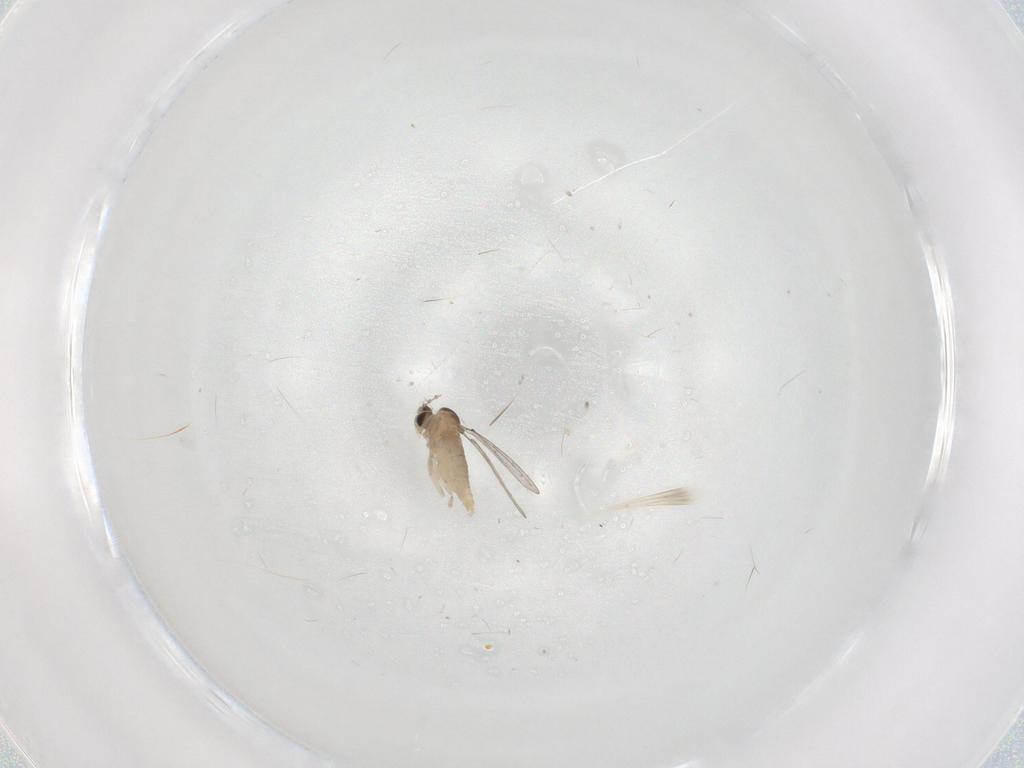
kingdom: Animalia
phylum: Arthropoda
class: Insecta
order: Diptera
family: Cecidomyiidae
